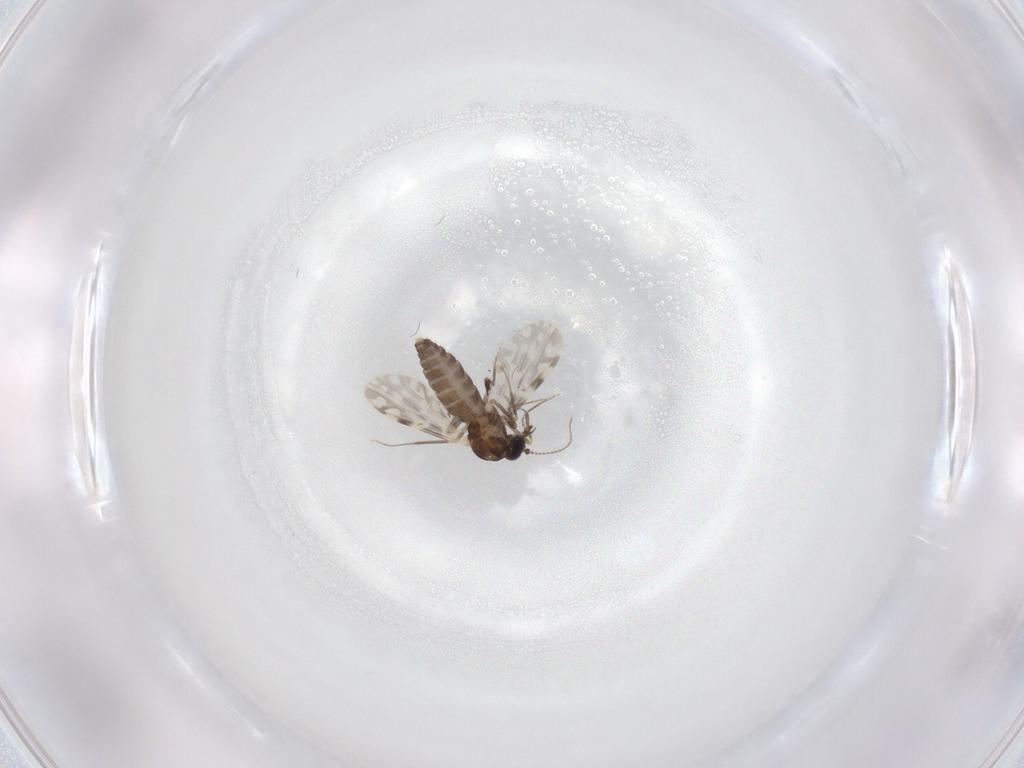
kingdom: Animalia
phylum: Arthropoda
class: Insecta
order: Diptera
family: Ceratopogonidae
